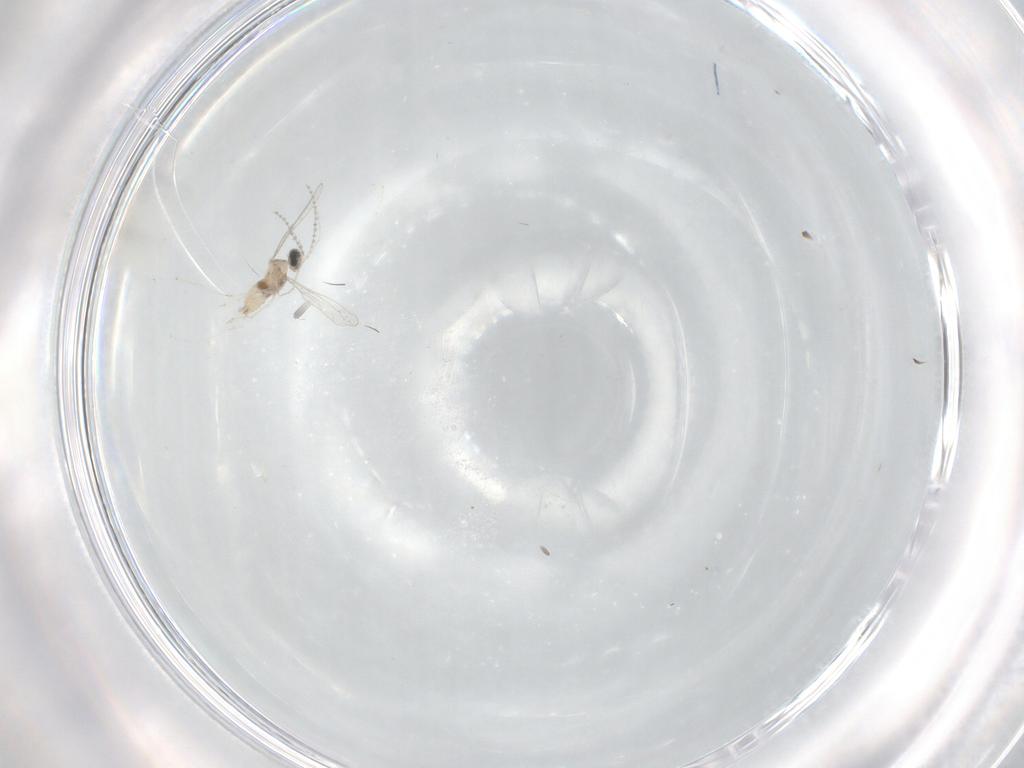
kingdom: Animalia
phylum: Arthropoda
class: Insecta
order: Diptera
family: Cecidomyiidae
